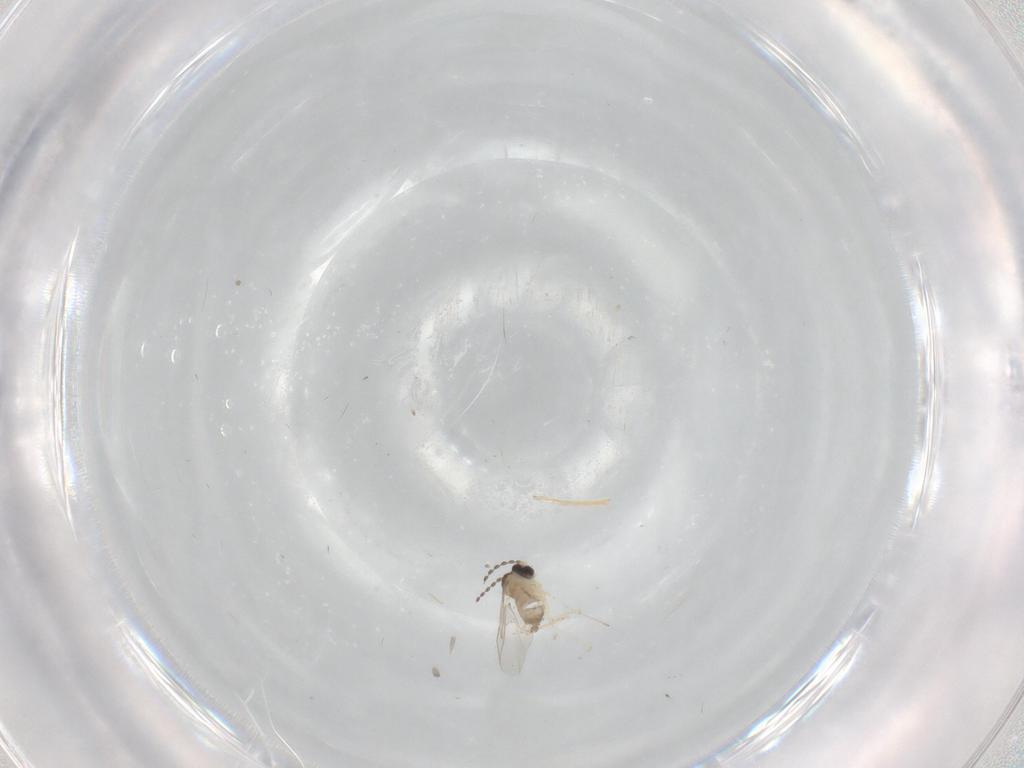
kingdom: Animalia
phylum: Arthropoda
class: Insecta
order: Diptera
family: Cecidomyiidae
